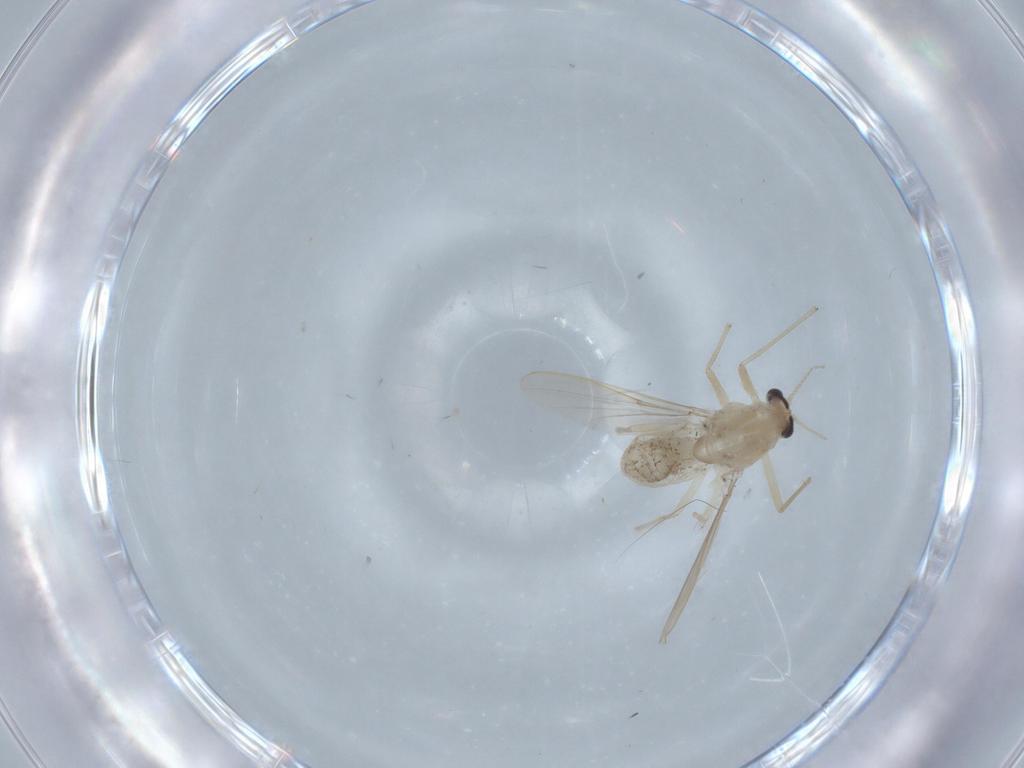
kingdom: Animalia
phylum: Arthropoda
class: Insecta
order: Diptera
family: Chironomidae
